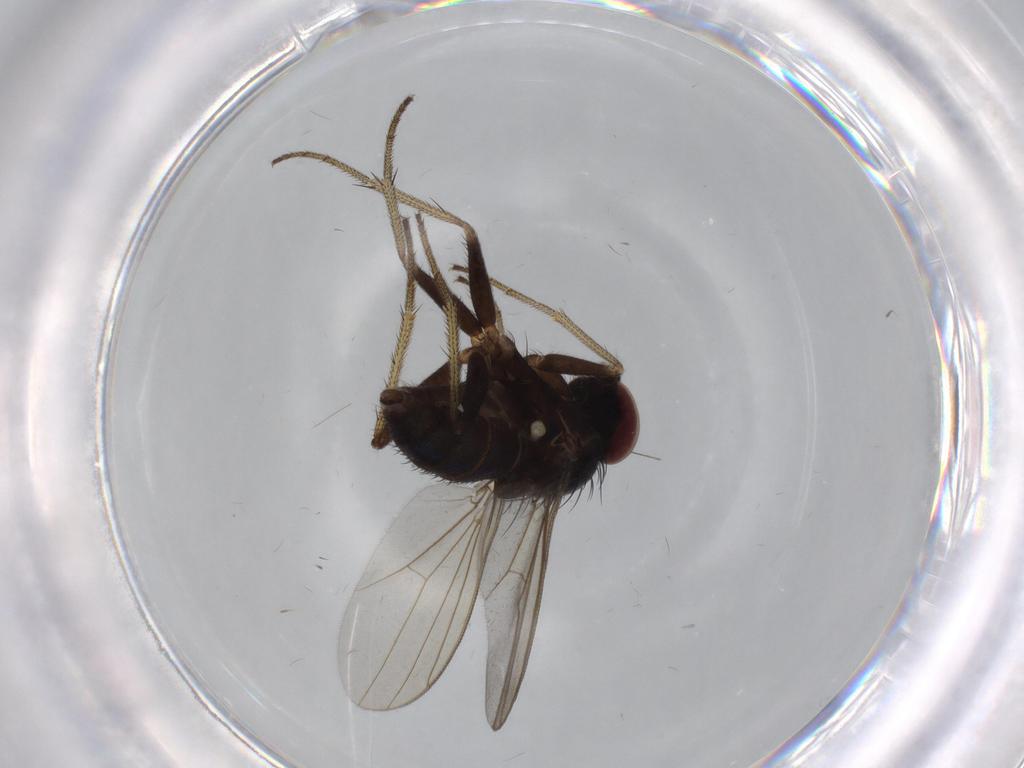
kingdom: Animalia
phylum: Arthropoda
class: Insecta
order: Diptera
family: Dolichopodidae
